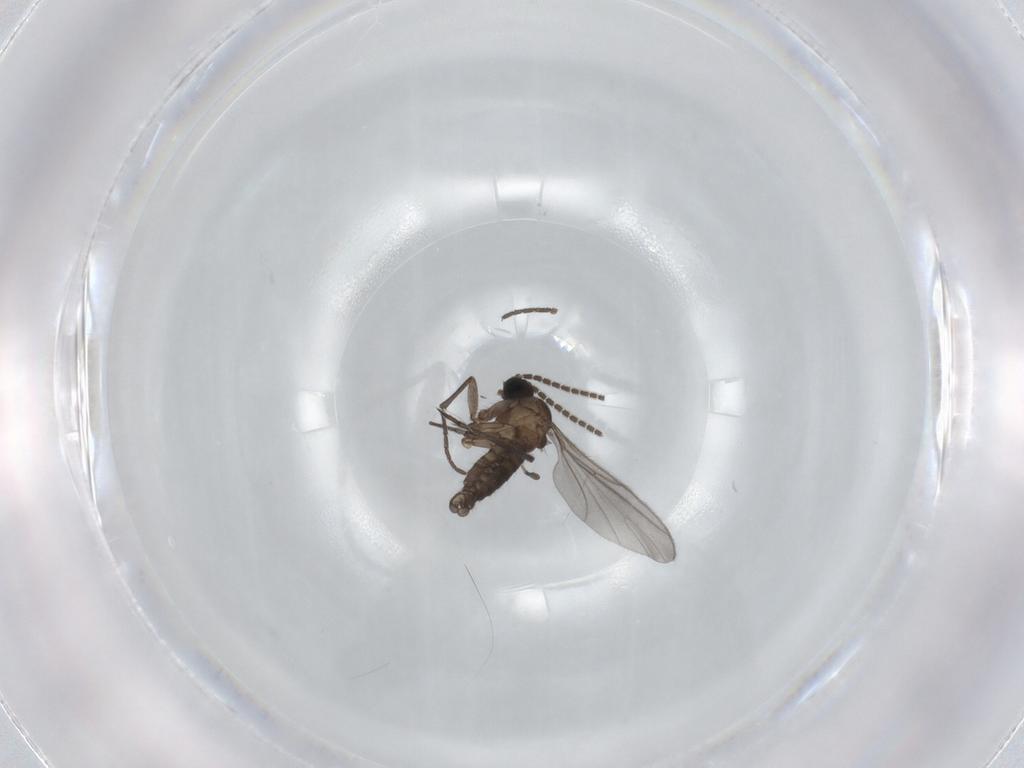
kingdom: Animalia
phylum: Arthropoda
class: Insecta
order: Diptera
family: Sciaridae
